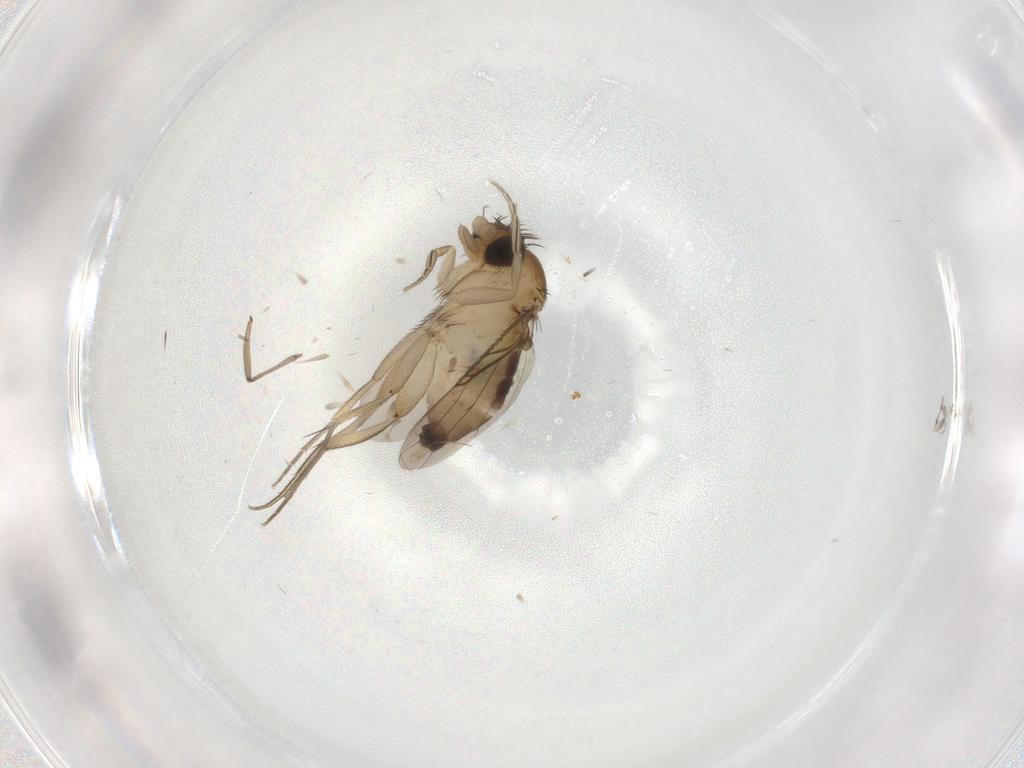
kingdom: Animalia
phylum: Arthropoda
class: Insecta
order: Diptera
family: Phoridae
